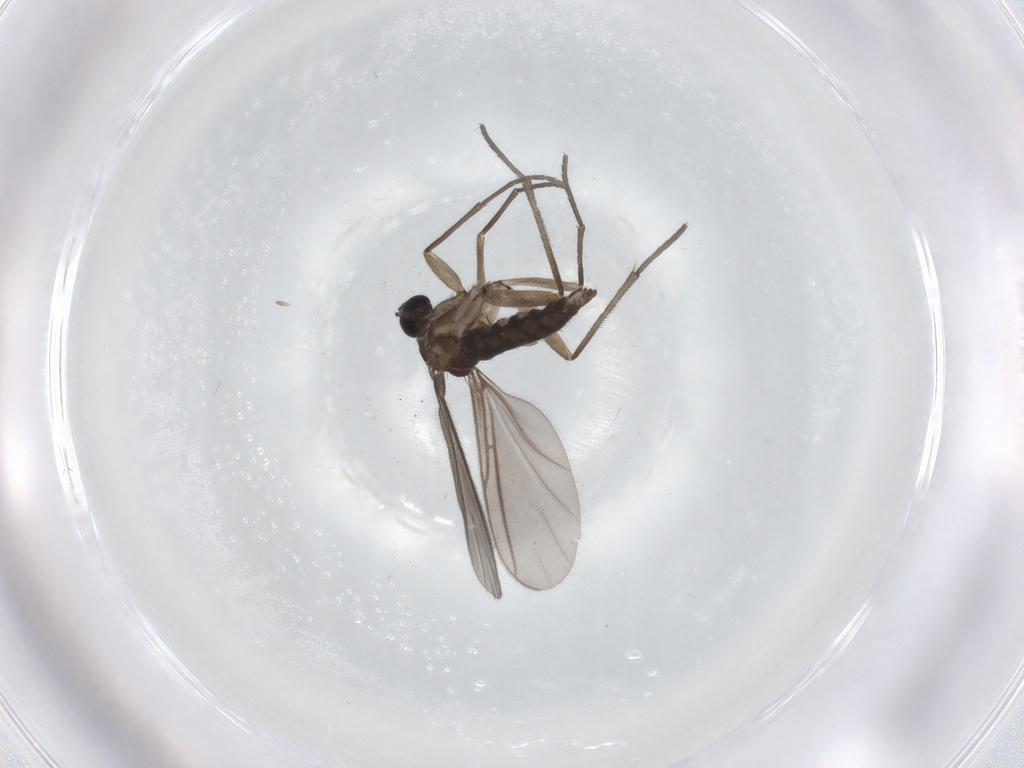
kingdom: Animalia
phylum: Arthropoda
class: Insecta
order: Diptera
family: Sciaridae
